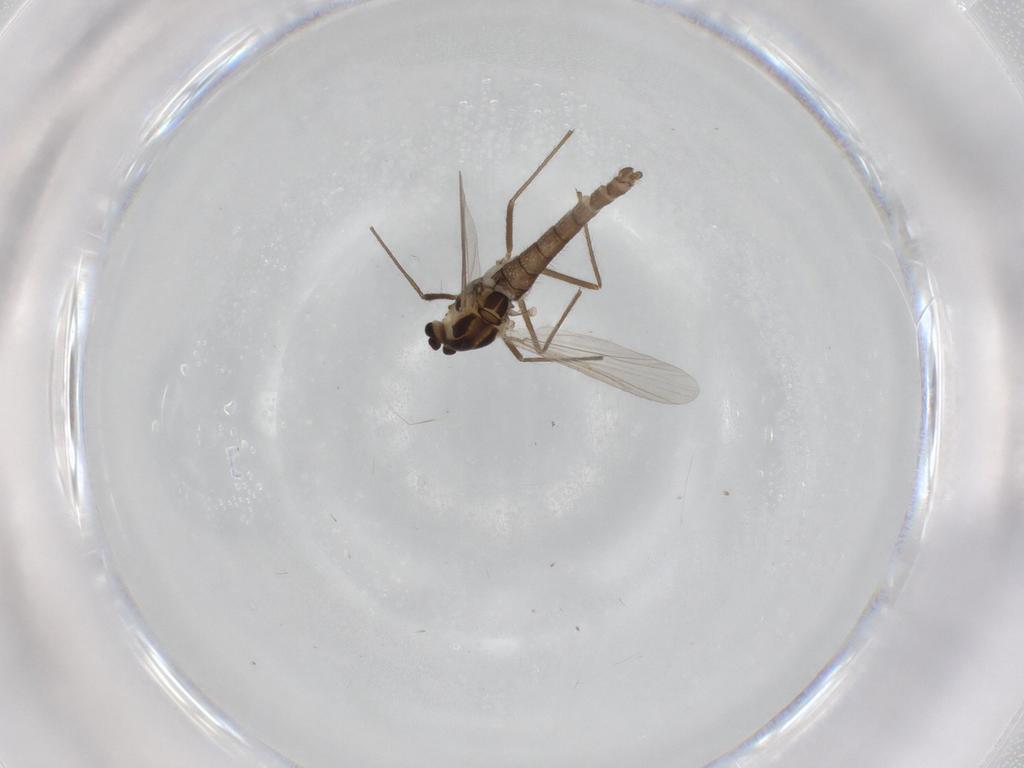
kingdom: Animalia
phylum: Arthropoda
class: Insecta
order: Diptera
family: Chironomidae
